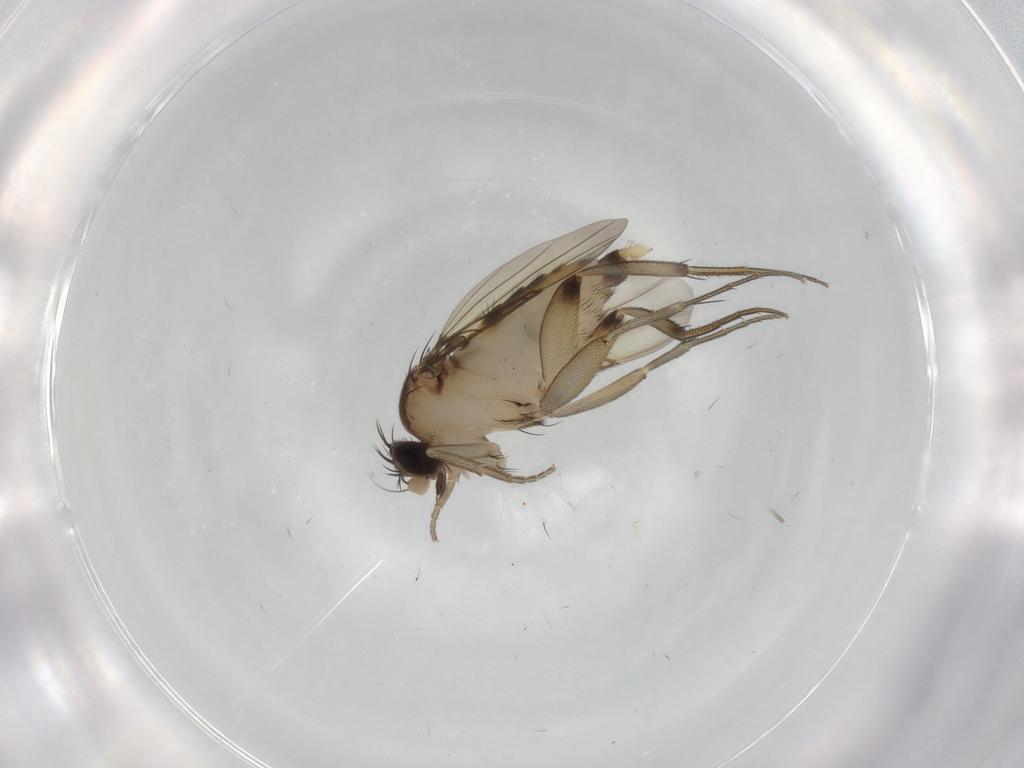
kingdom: Animalia
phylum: Arthropoda
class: Insecta
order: Diptera
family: Phoridae
